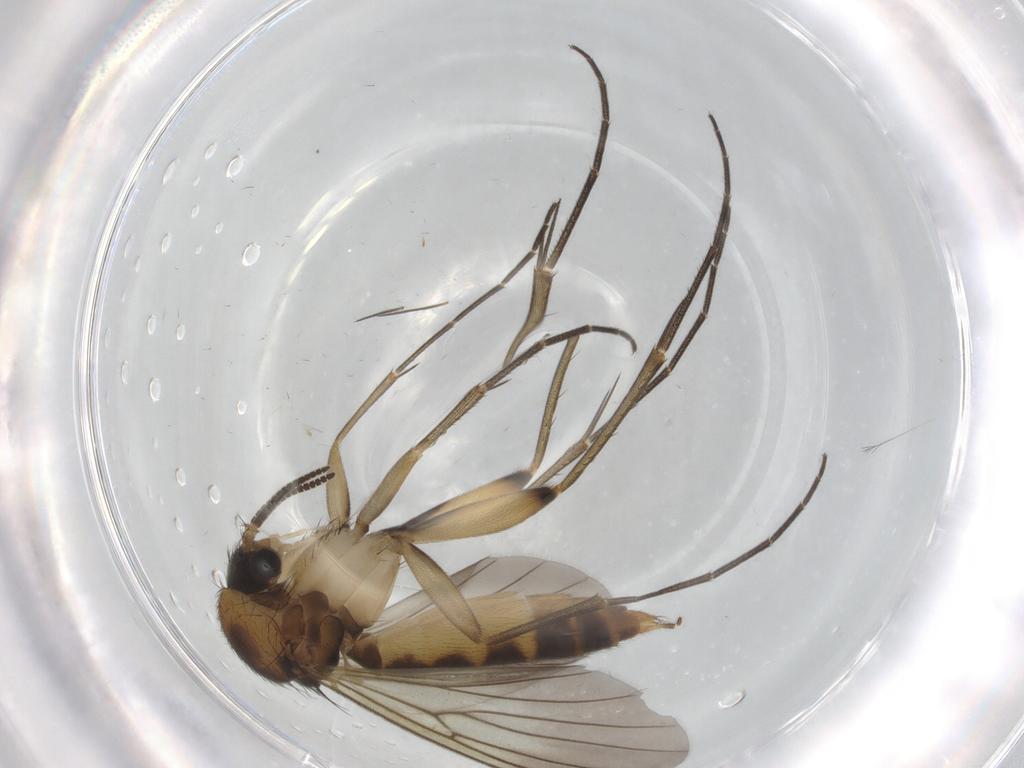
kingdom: Animalia
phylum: Arthropoda
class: Insecta
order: Diptera
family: Mycetophilidae
